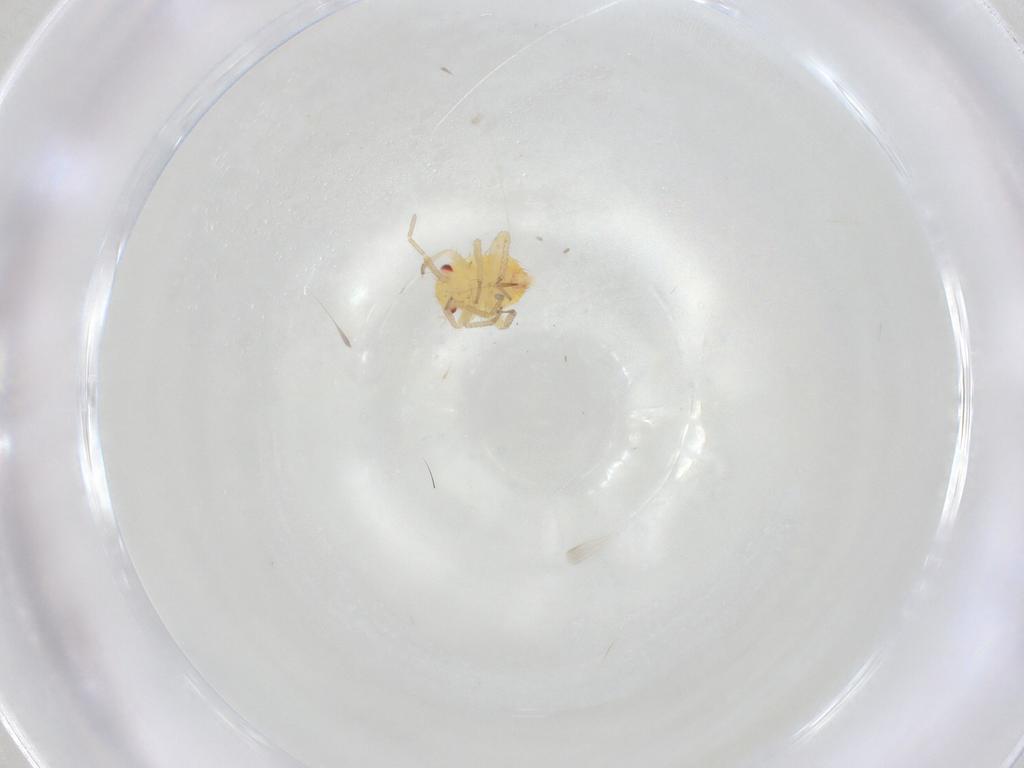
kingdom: Animalia
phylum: Arthropoda
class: Insecta
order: Hemiptera
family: Miridae
